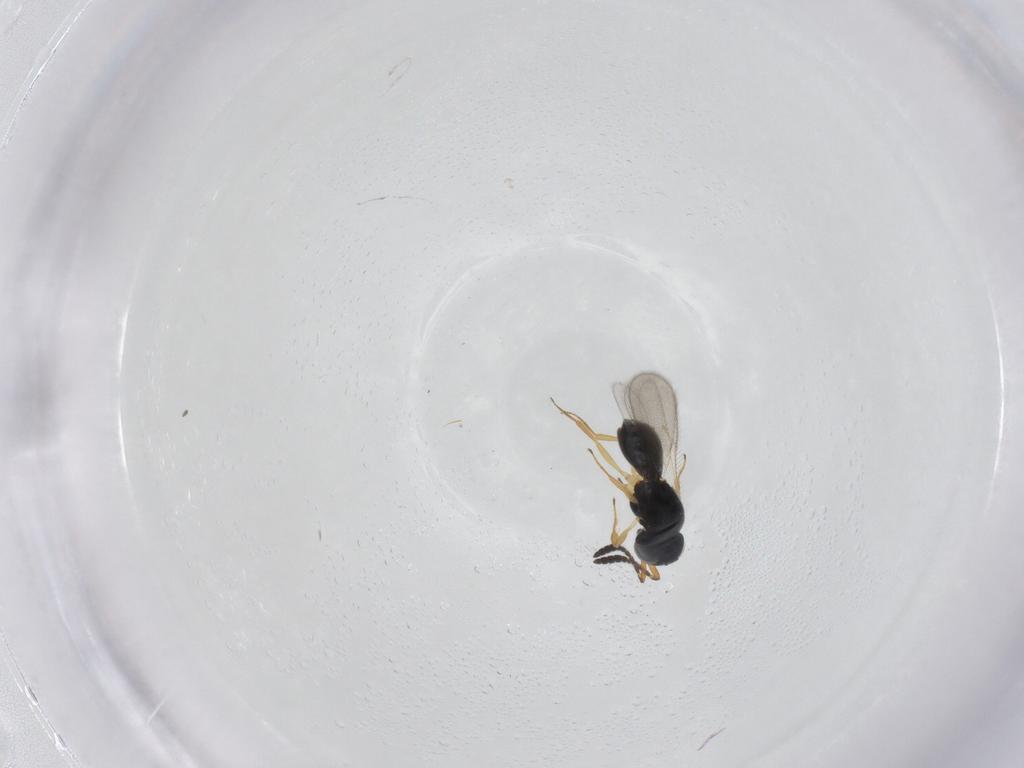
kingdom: Animalia
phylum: Arthropoda
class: Insecta
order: Hymenoptera
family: Scelionidae
